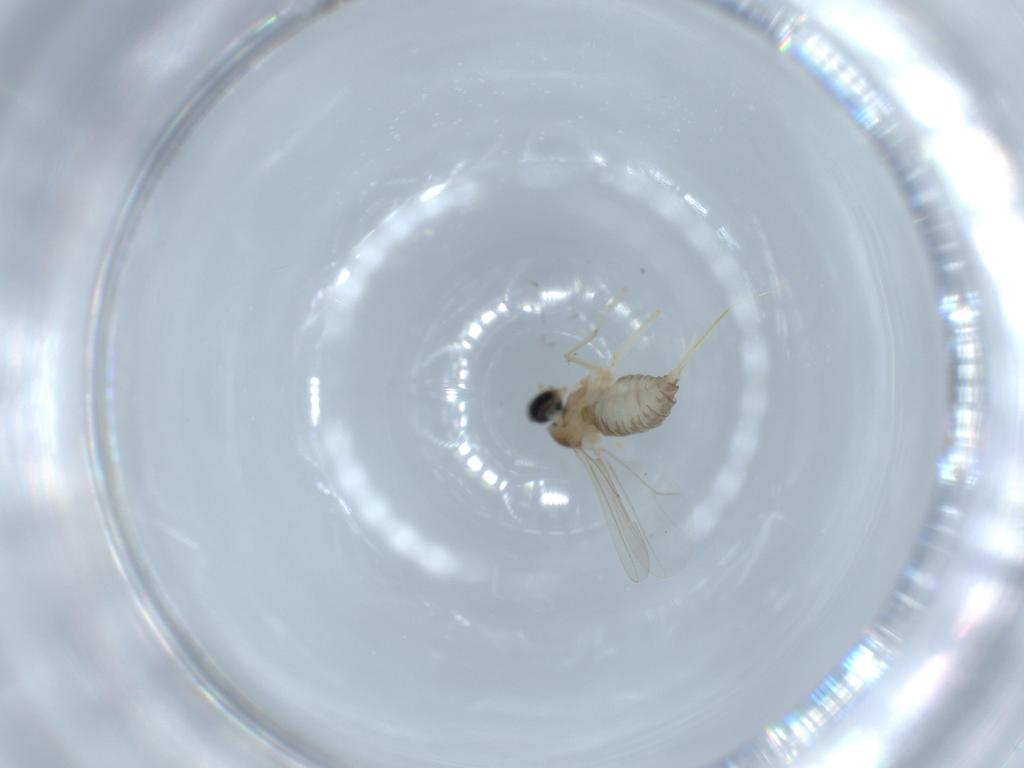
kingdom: Animalia
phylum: Arthropoda
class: Insecta
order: Diptera
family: Cecidomyiidae
